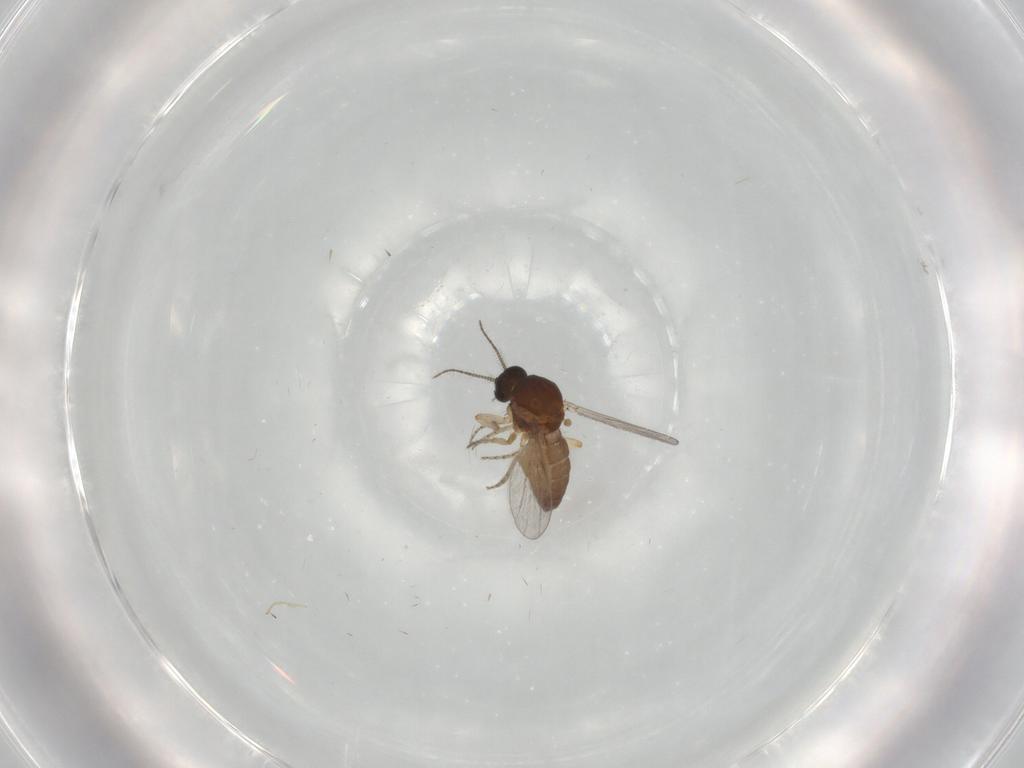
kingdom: Animalia
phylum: Arthropoda
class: Insecta
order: Diptera
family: Ceratopogonidae
